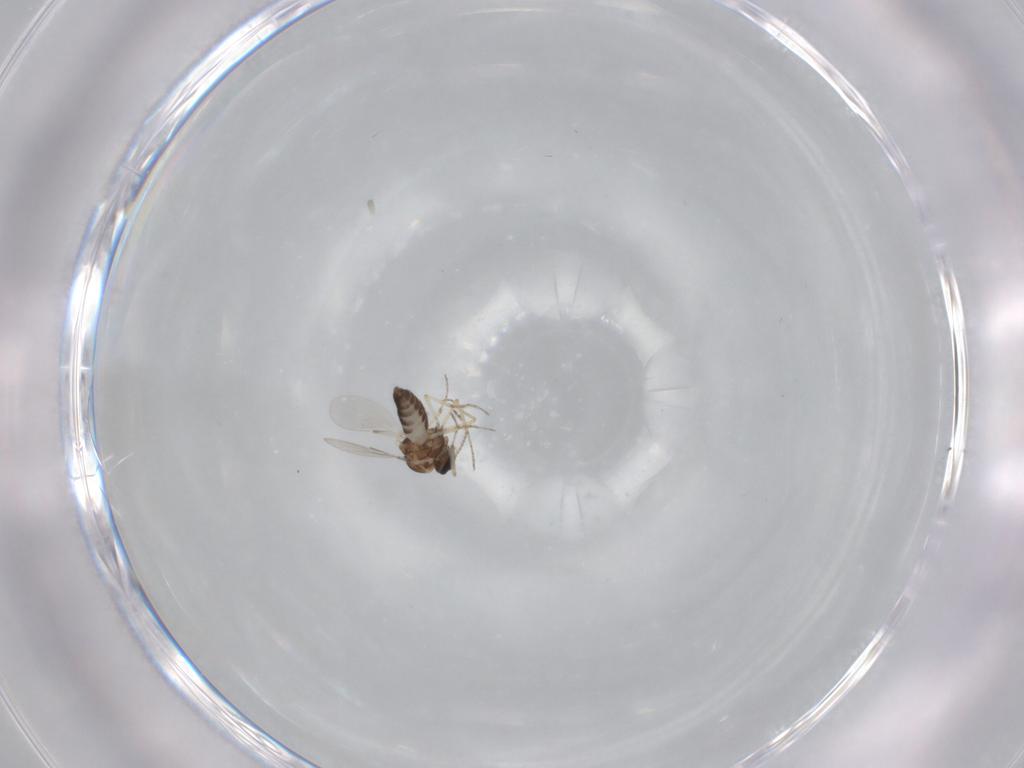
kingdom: Animalia
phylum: Arthropoda
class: Insecta
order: Diptera
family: Ceratopogonidae
